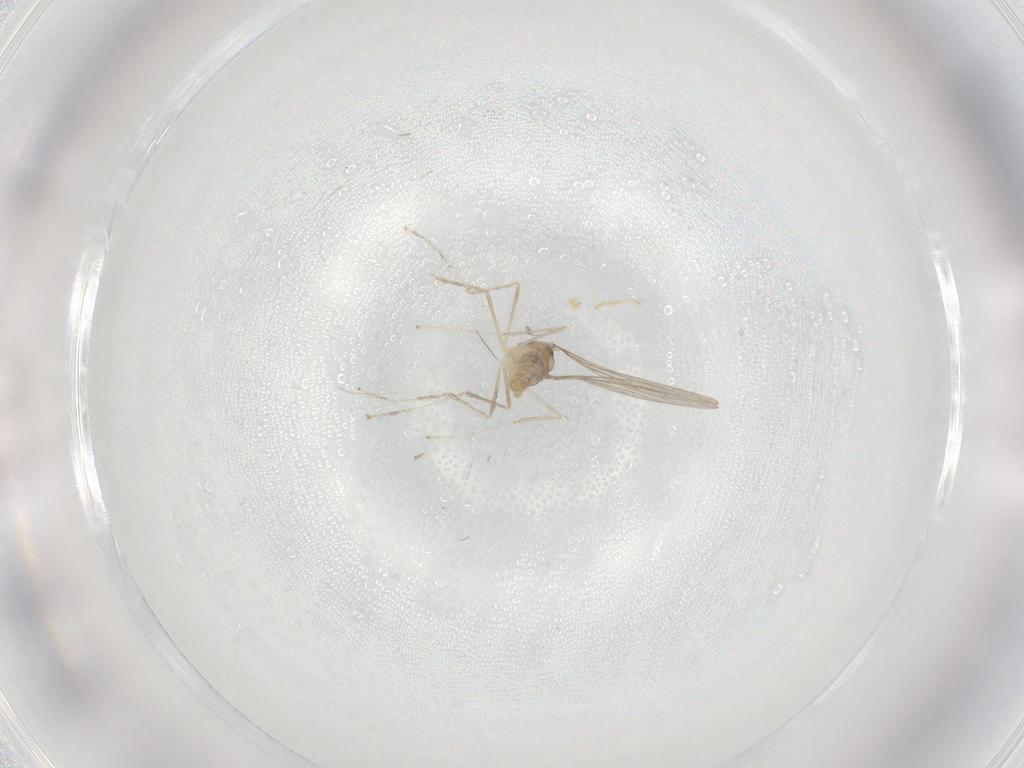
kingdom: Animalia
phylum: Arthropoda
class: Insecta
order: Diptera
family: Cecidomyiidae
